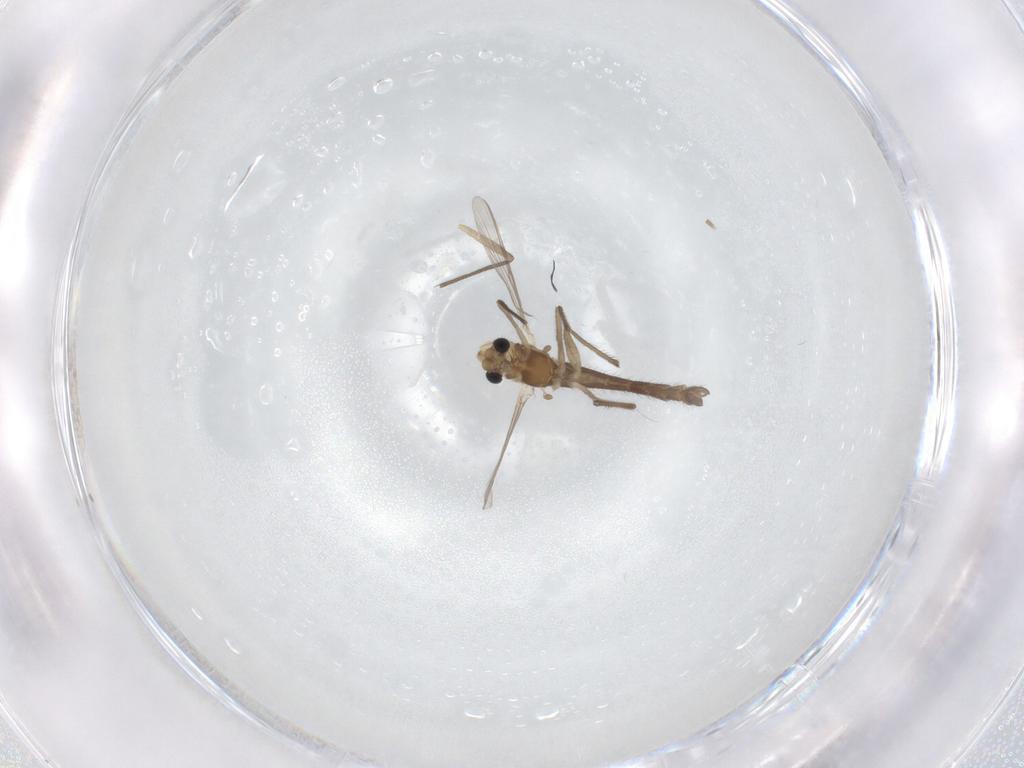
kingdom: Animalia
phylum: Arthropoda
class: Insecta
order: Diptera
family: Chironomidae
